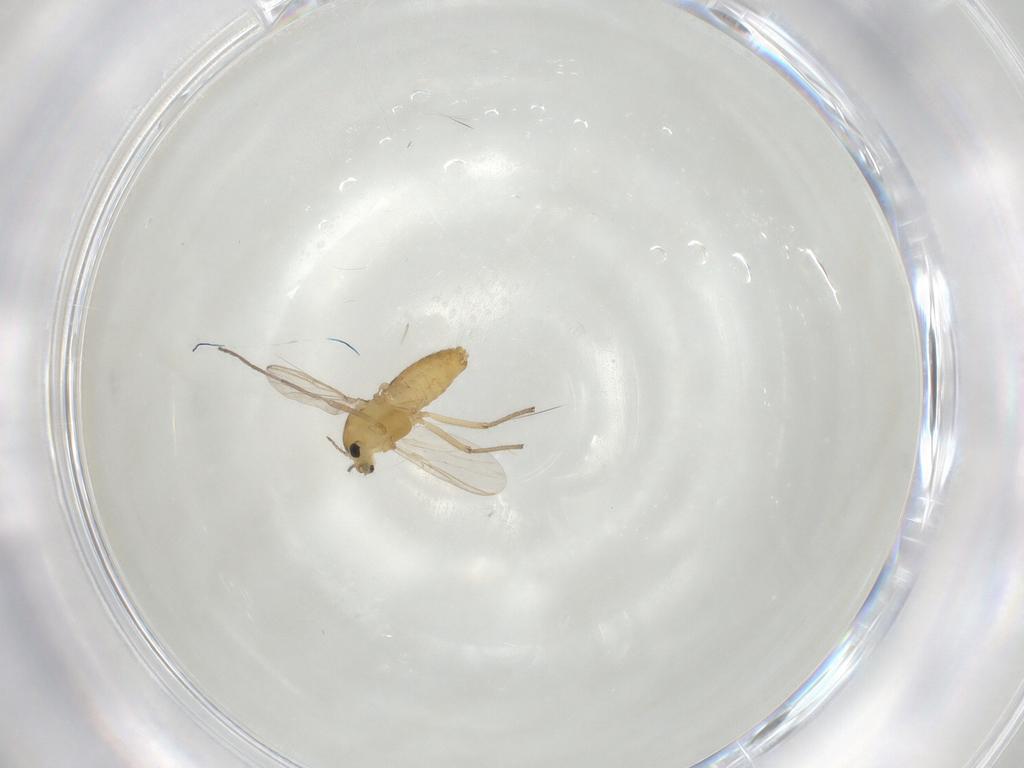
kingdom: Animalia
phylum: Arthropoda
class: Insecta
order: Diptera
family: Chironomidae
